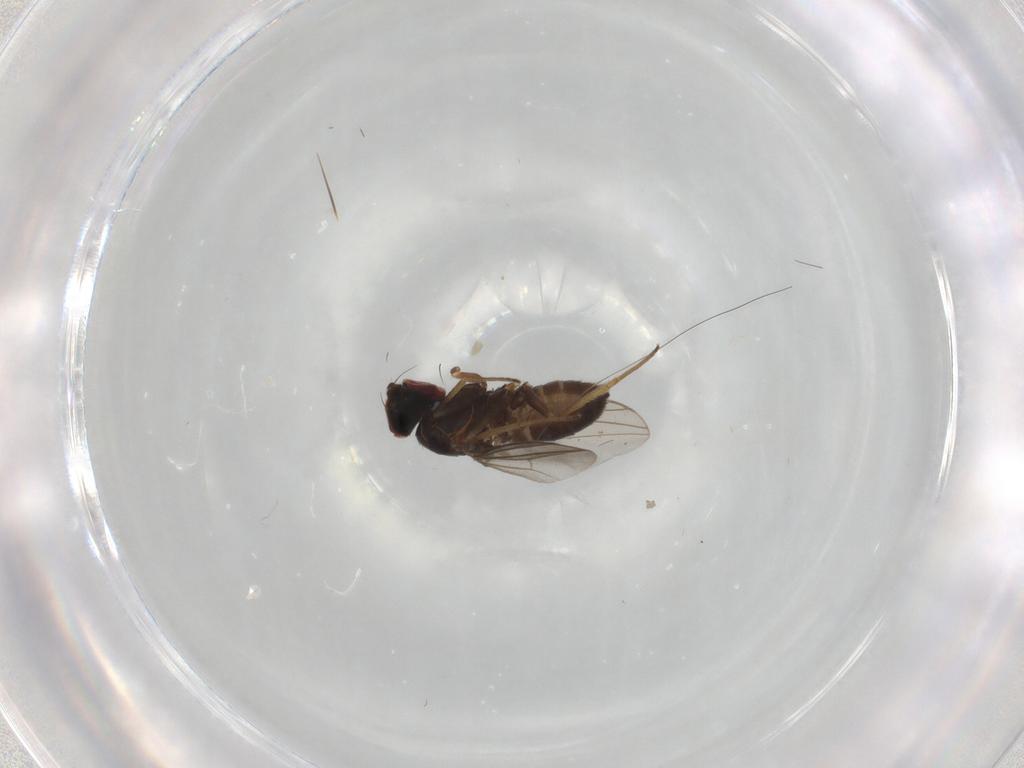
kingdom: Animalia
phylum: Arthropoda
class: Insecta
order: Diptera
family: Dolichopodidae
